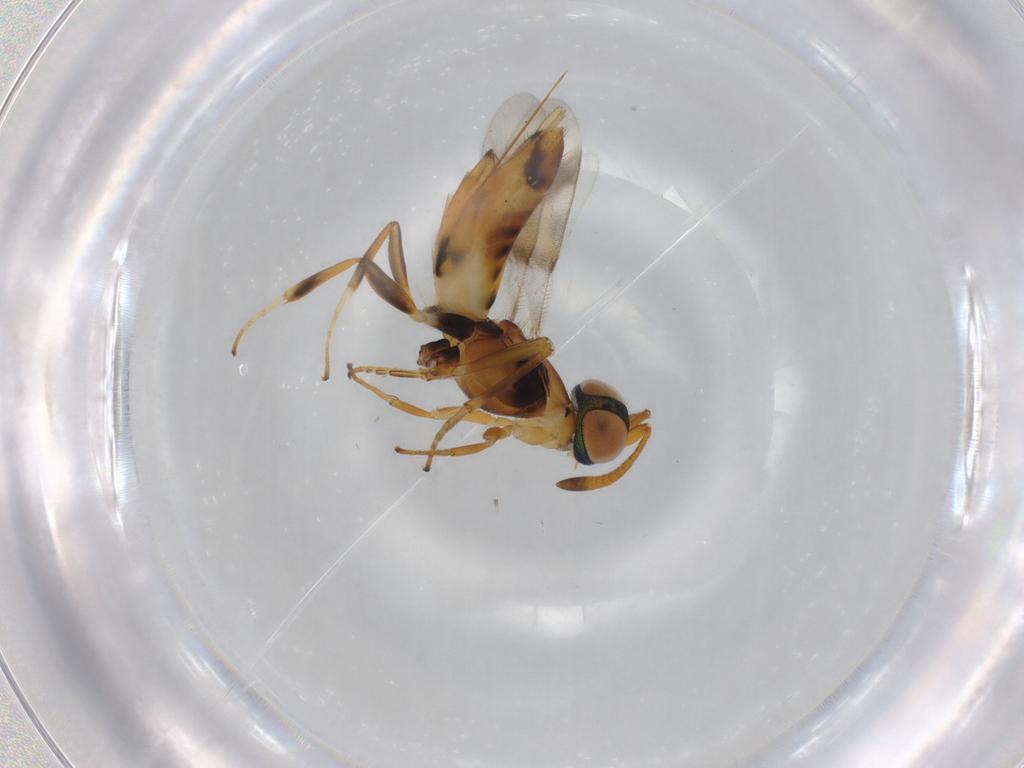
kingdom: Animalia
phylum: Arthropoda
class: Insecta
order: Hymenoptera
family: Eupelmidae
